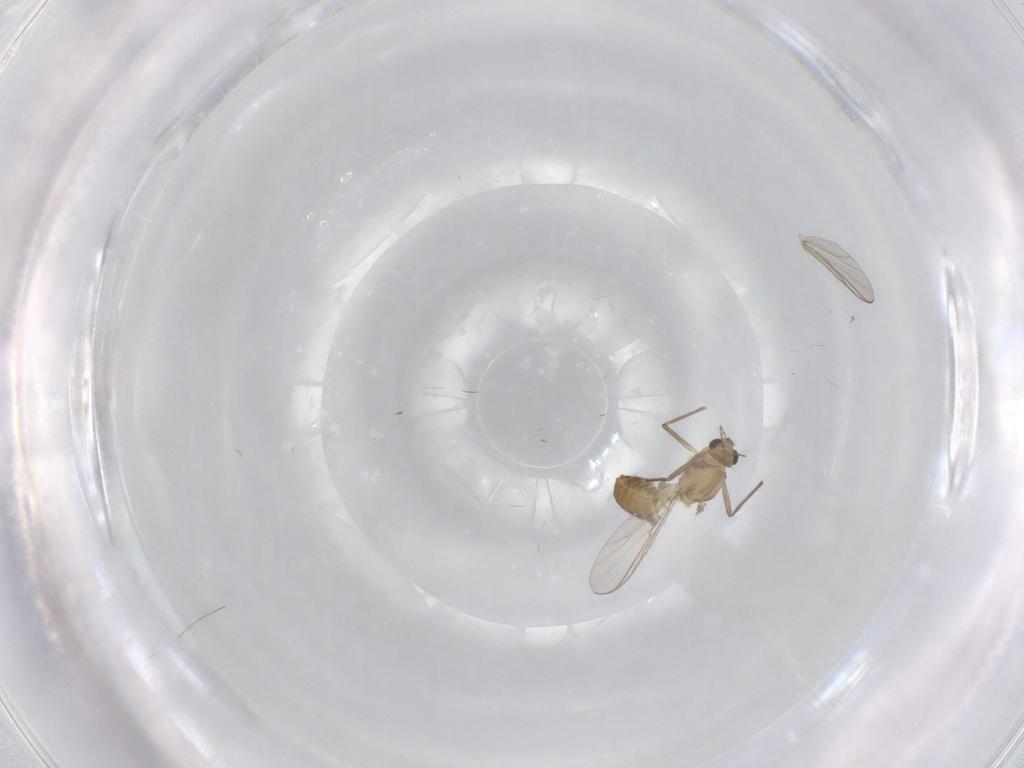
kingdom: Animalia
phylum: Arthropoda
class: Insecta
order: Diptera
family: Chironomidae
